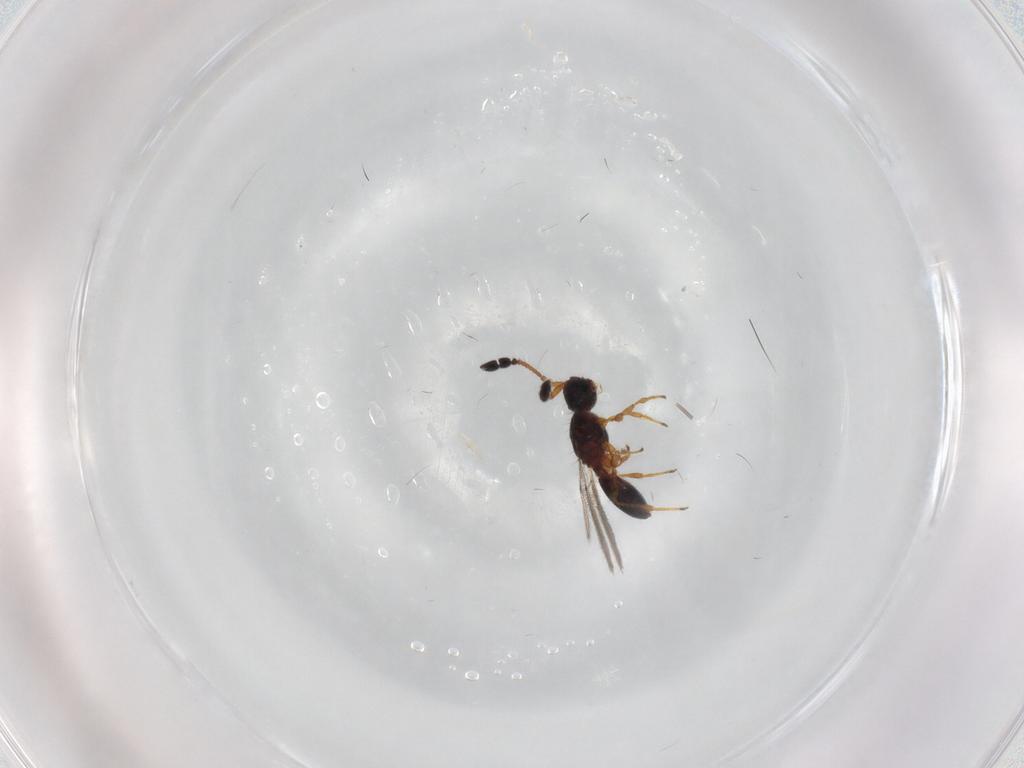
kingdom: Animalia
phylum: Arthropoda
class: Insecta
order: Hymenoptera
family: Diapriidae
